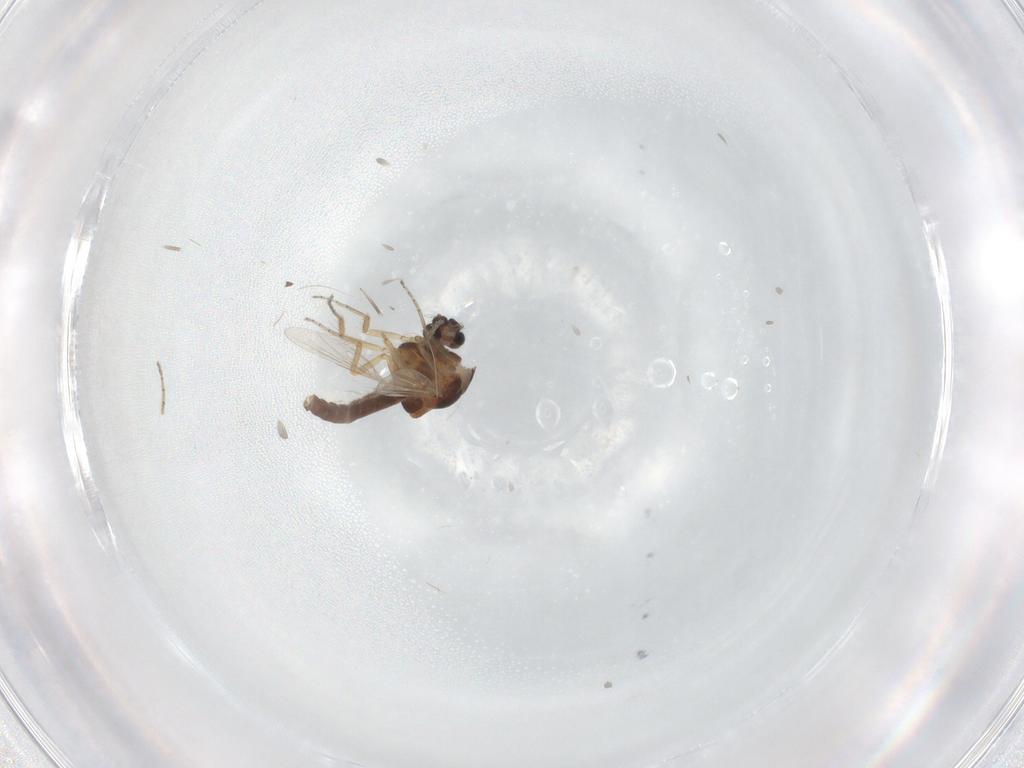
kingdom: Animalia
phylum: Arthropoda
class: Insecta
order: Diptera
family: Ceratopogonidae
